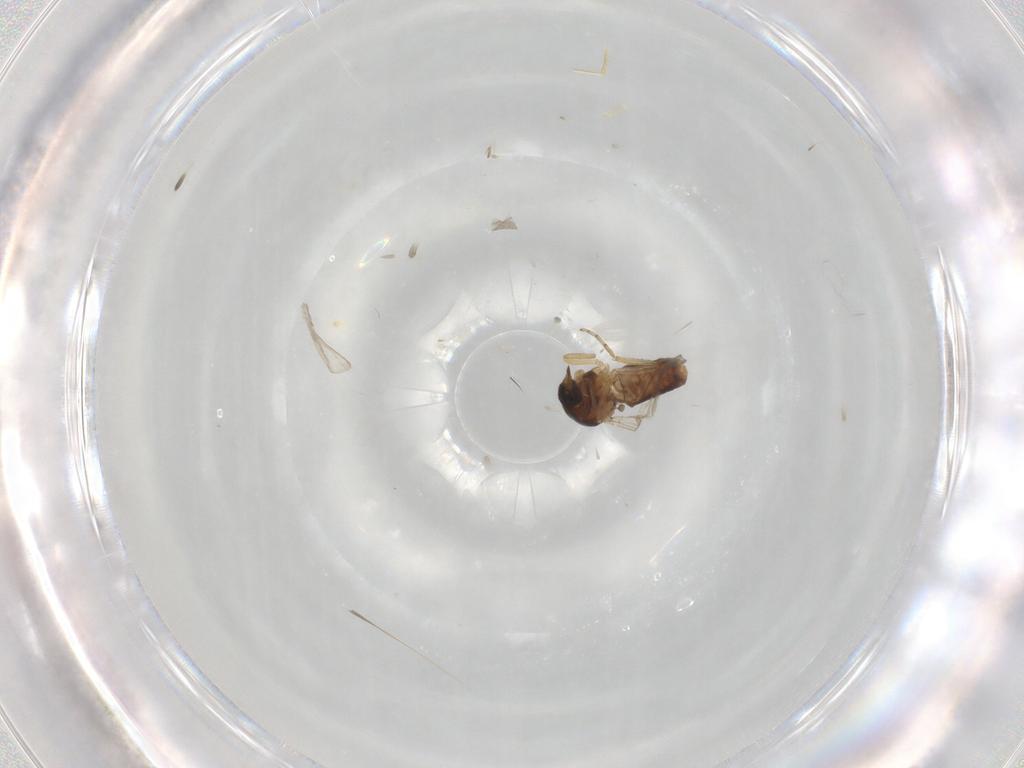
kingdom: Animalia
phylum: Arthropoda
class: Insecta
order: Diptera
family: Ceratopogonidae
